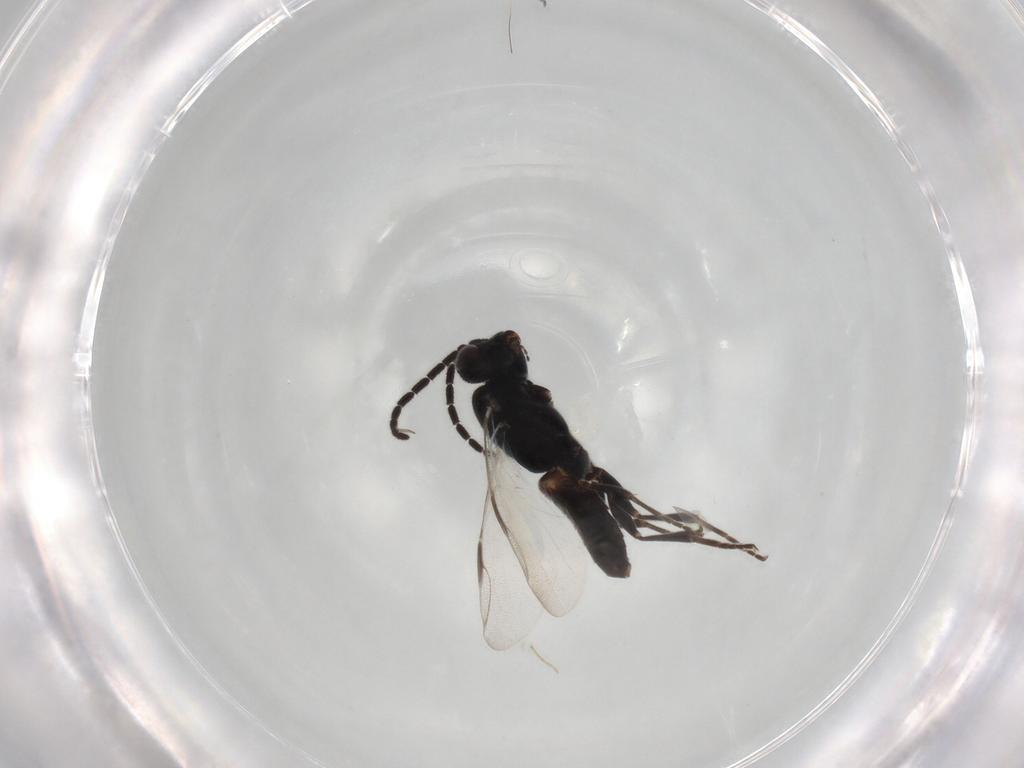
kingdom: Animalia
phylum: Arthropoda
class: Insecta
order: Hymenoptera
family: Dryinidae
